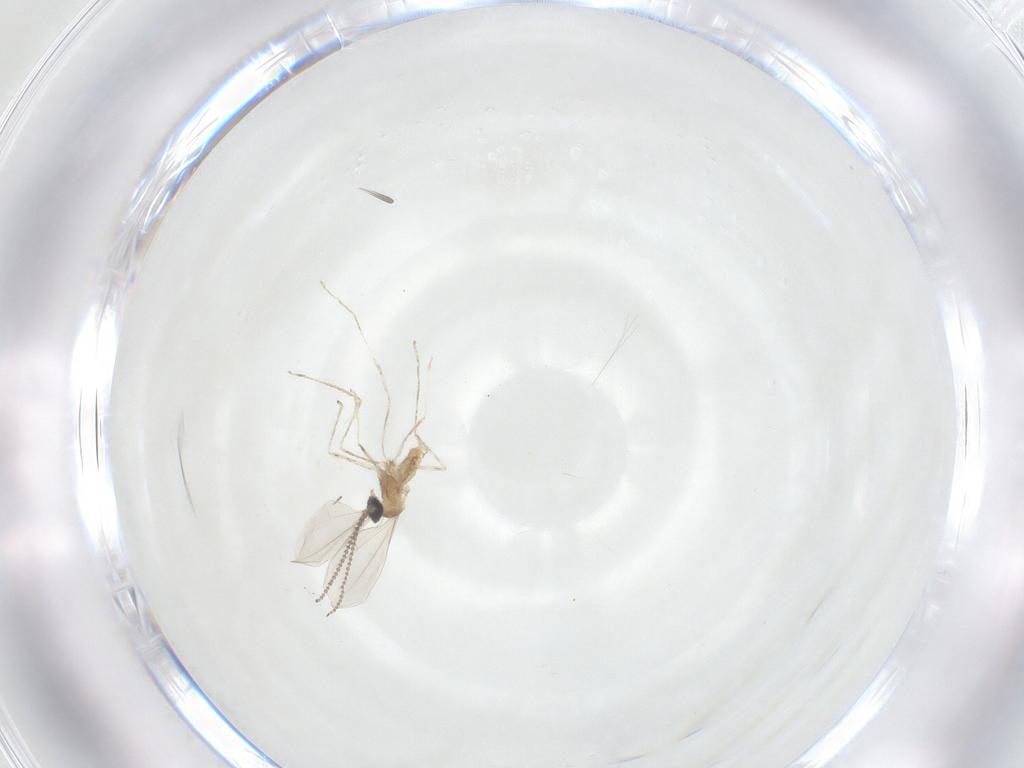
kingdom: Animalia
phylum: Arthropoda
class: Insecta
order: Diptera
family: Cecidomyiidae
